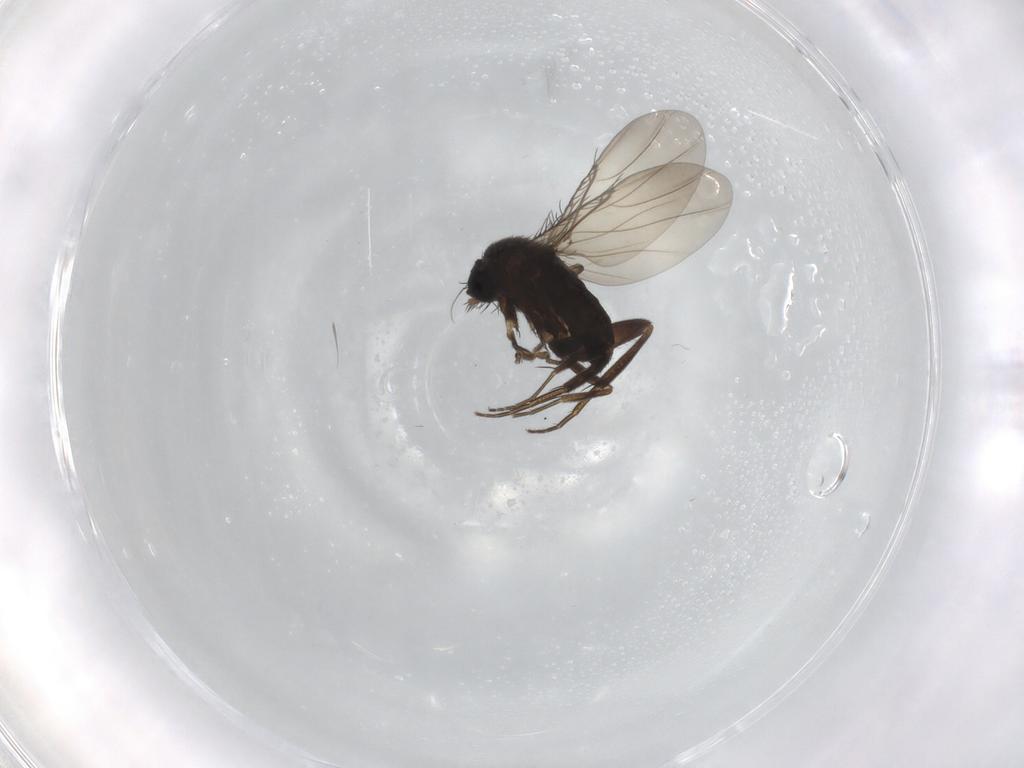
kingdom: Animalia
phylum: Arthropoda
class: Insecta
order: Diptera
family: Phoridae
